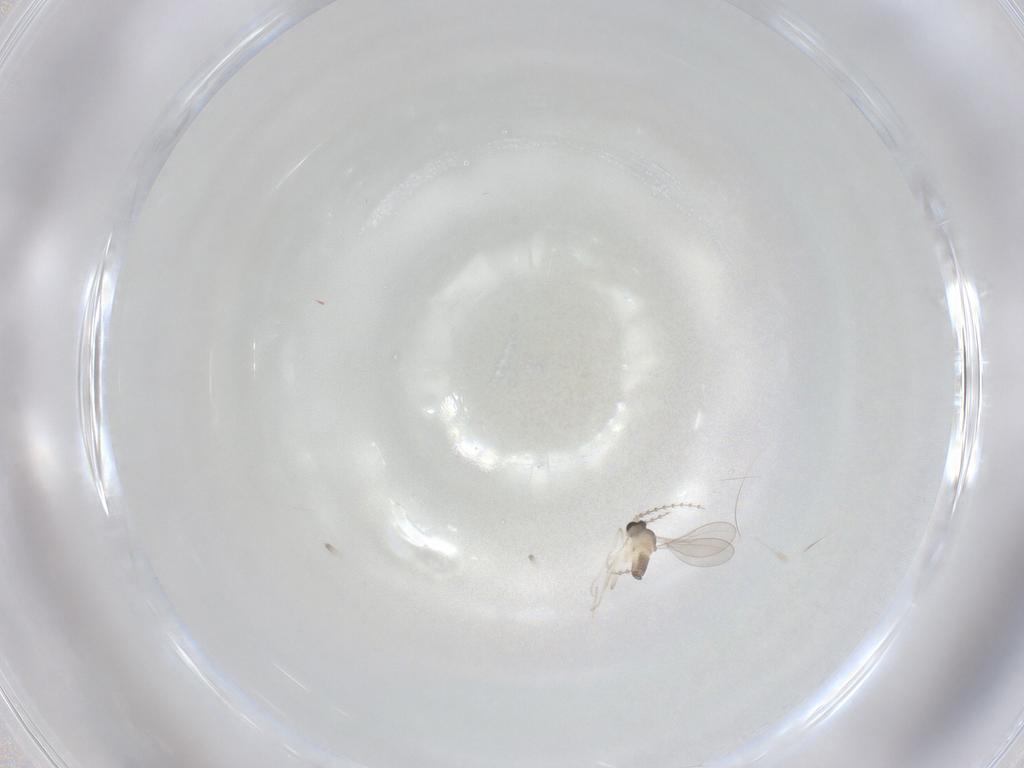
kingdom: Animalia
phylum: Arthropoda
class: Insecta
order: Diptera
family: Cecidomyiidae
